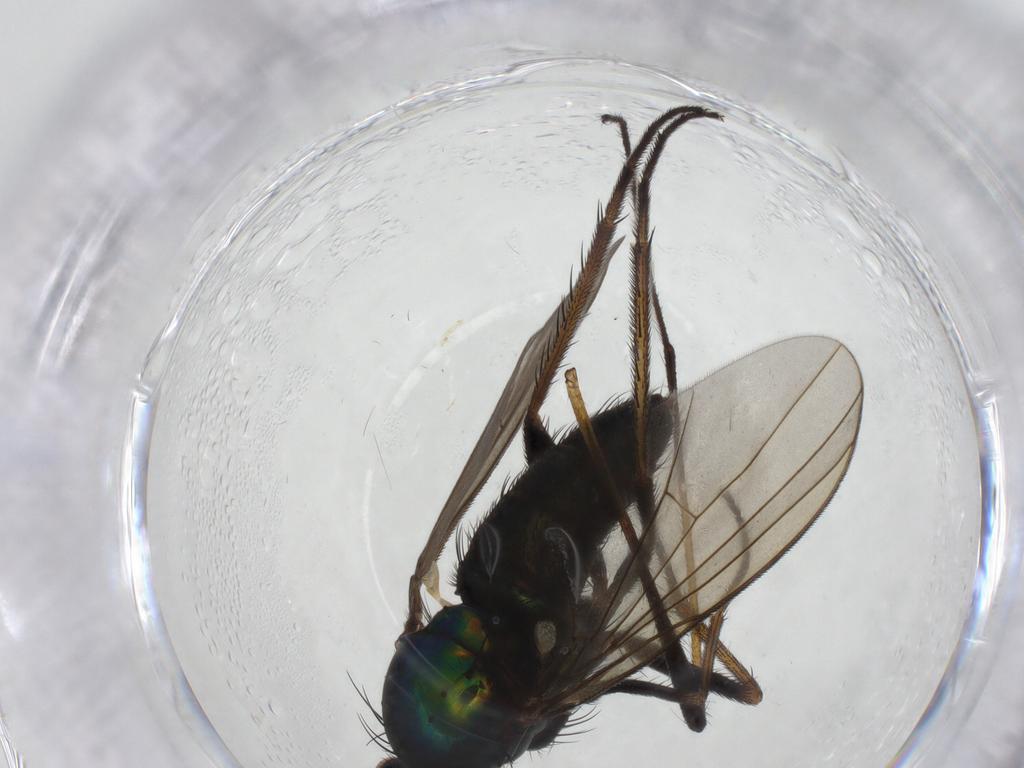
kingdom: Animalia
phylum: Arthropoda
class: Insecta
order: Diptera
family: Limoniidae
